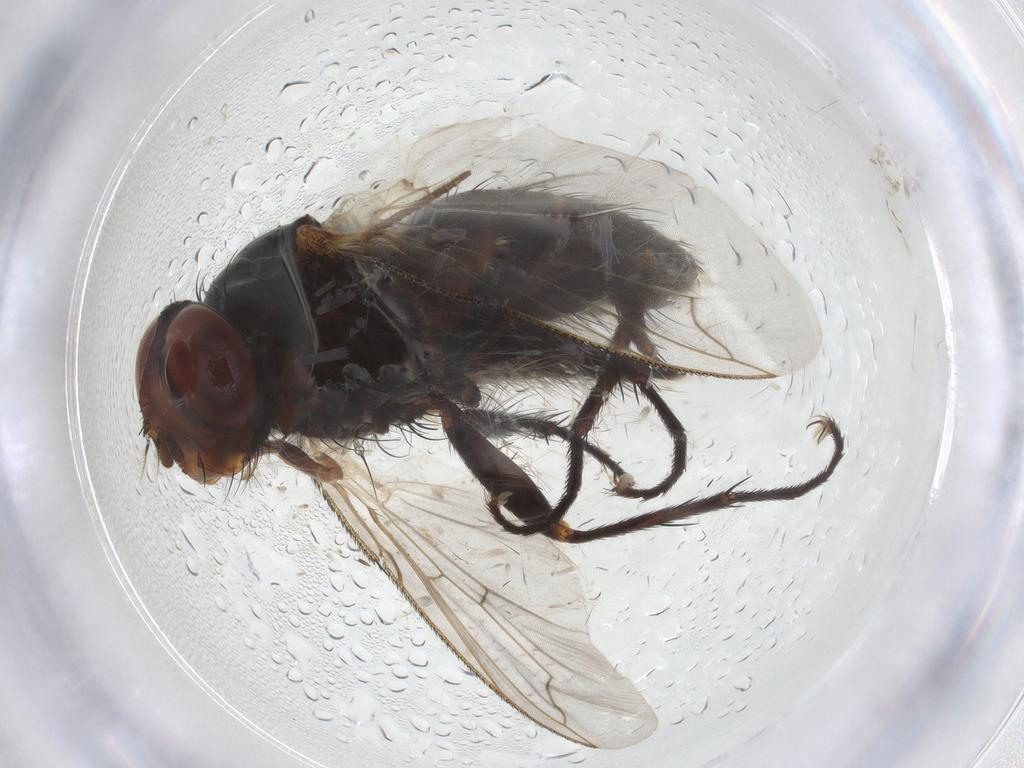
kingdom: Animalia
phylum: Arthropoda
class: Insecta
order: Diptera
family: Tachinidae
